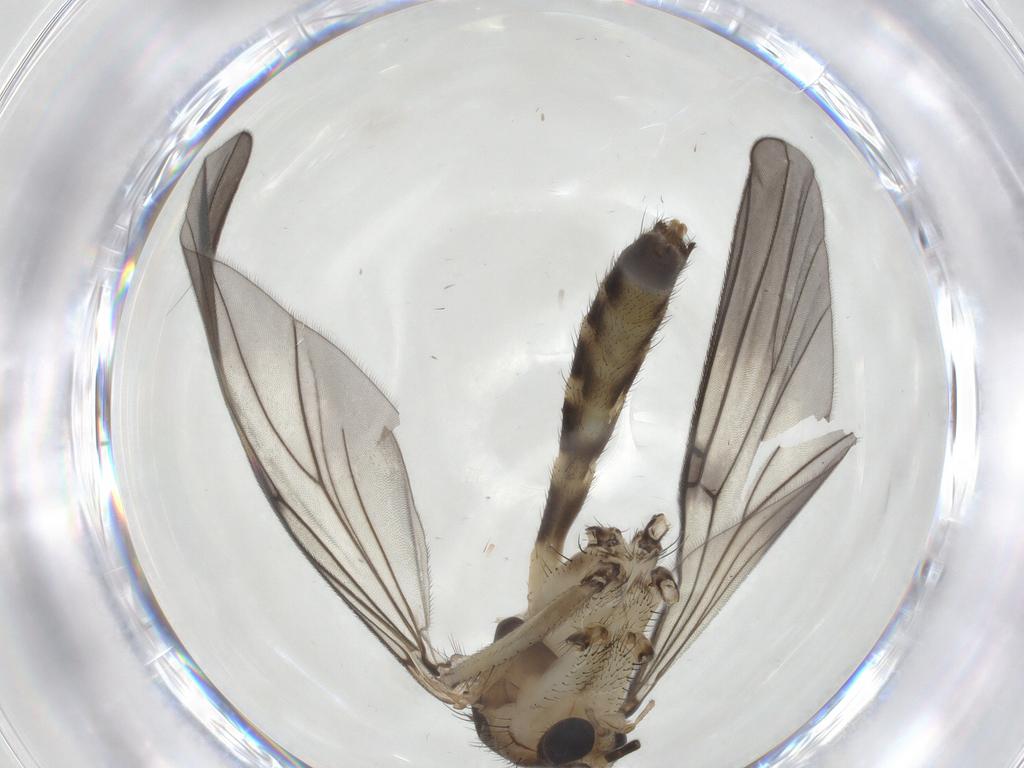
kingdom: Animalia
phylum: Arthropoda
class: Insecta
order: Diptera
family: Mycetophilidae
